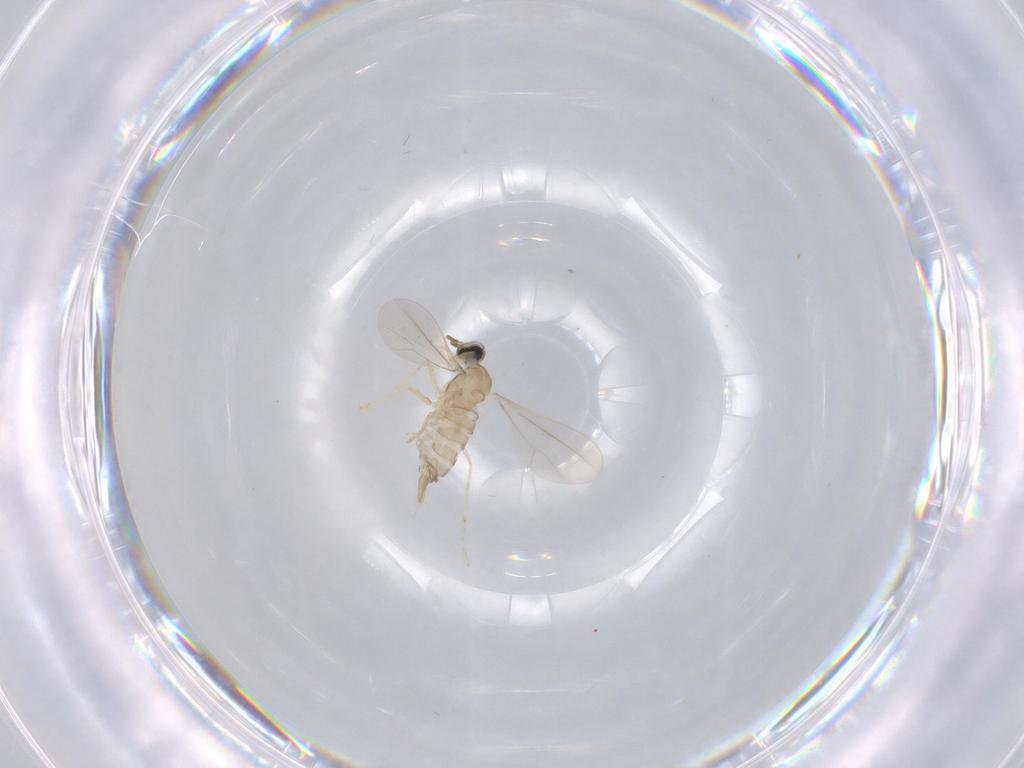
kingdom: Animalia
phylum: Arthropoda
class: Insecta
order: Diptera
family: Cecidomyiidae
